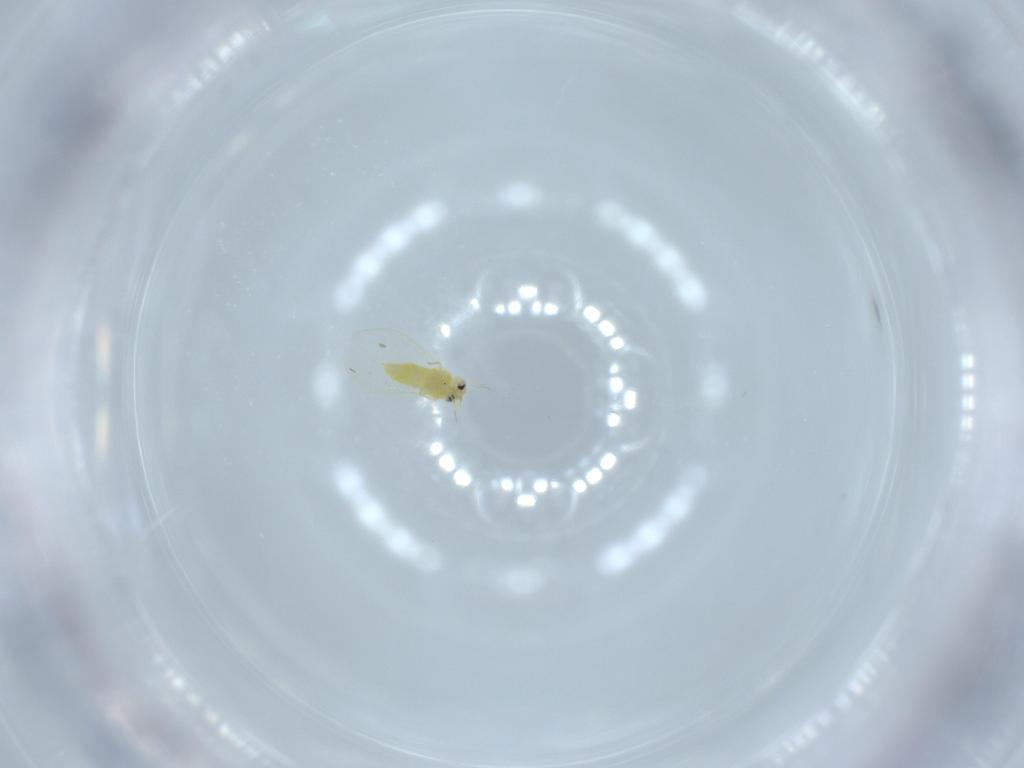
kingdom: Animalia
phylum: Arthropoda
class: Insecta
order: Hemiptera
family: Aleyrodidae
